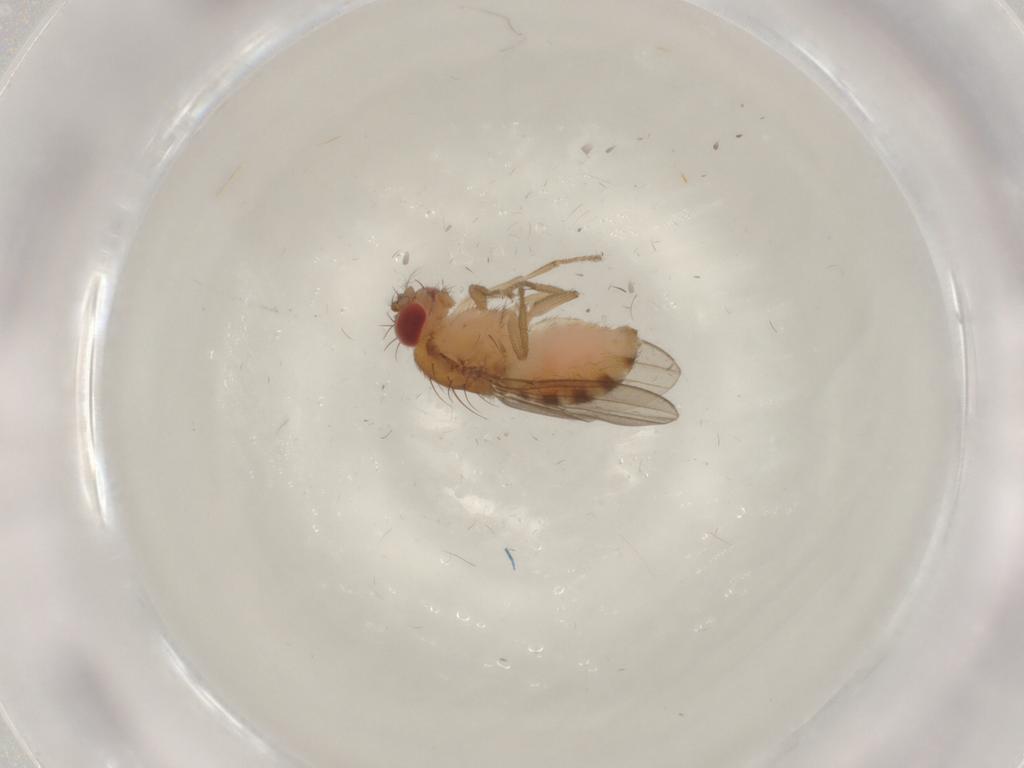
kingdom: Animalia
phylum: Arthropoda
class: Insecta
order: Diptera
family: Drosophilidae
